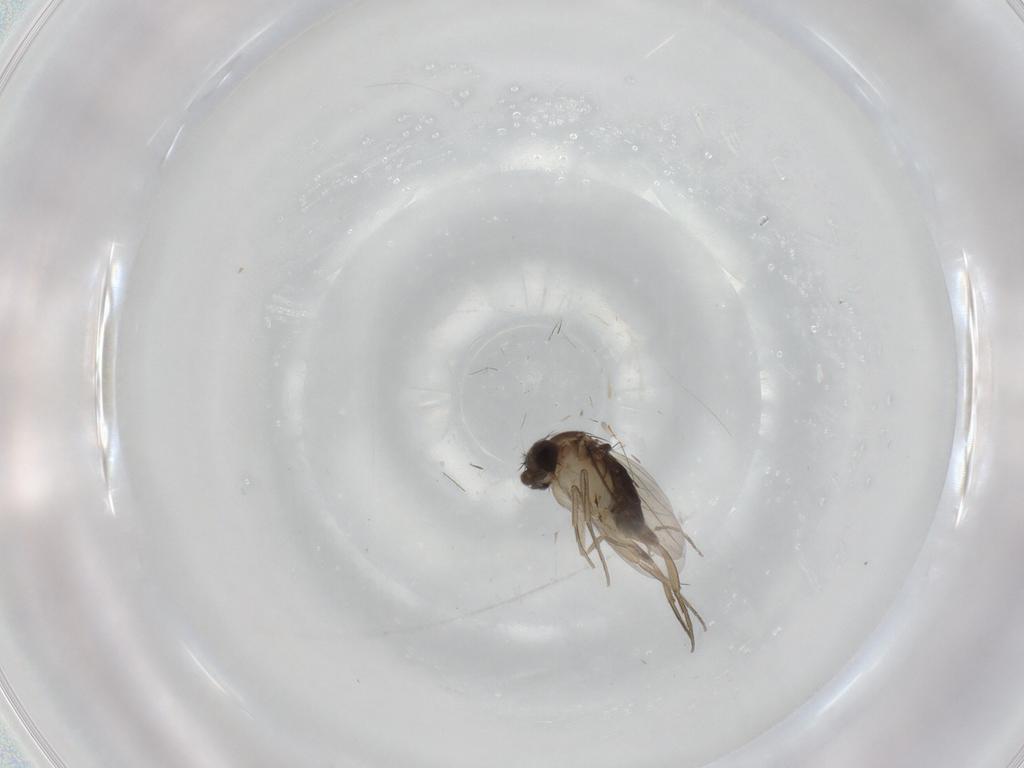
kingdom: Animalia
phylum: Arthropoda
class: Insecta
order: Diptera
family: Phoridae
